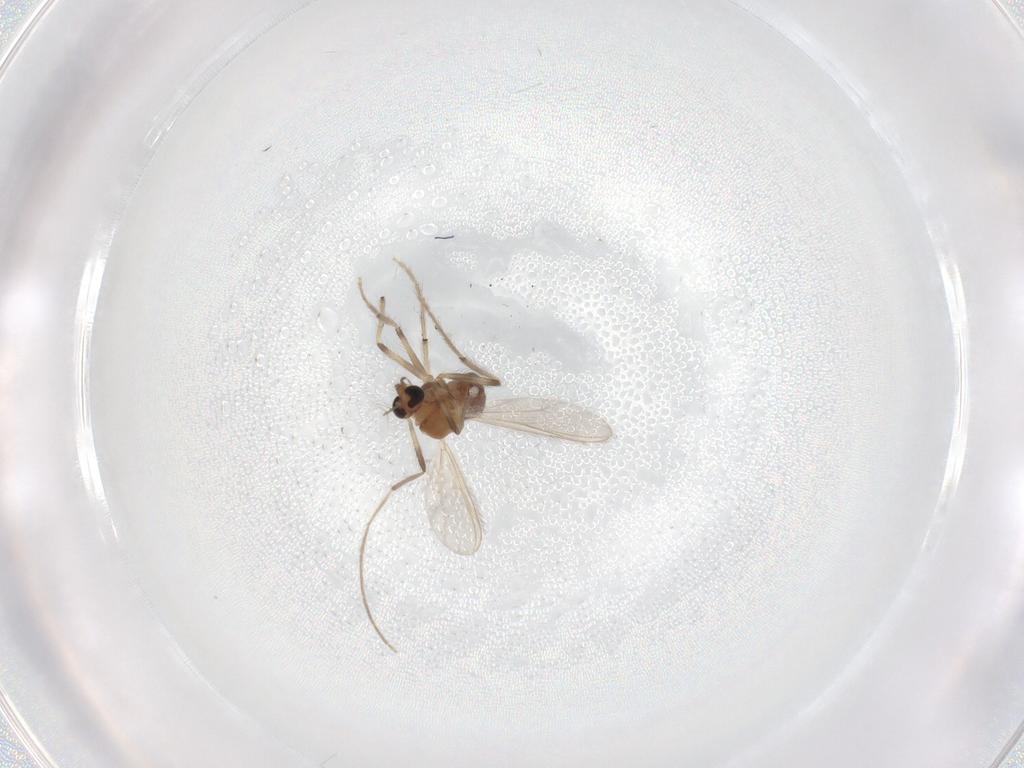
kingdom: Animalia
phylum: Arthropoda
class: Insecta
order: Diptera
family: Chironomidae
